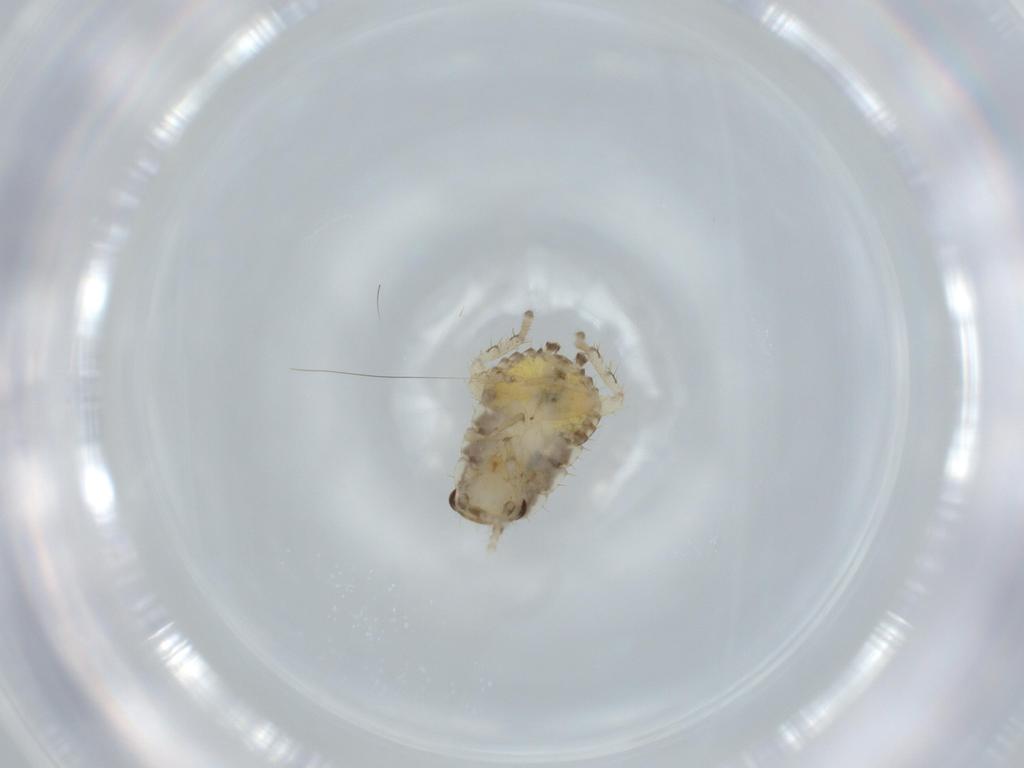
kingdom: Animalia
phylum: Arthropoda
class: Insecta
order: Blattodea
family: Ectobiidae
